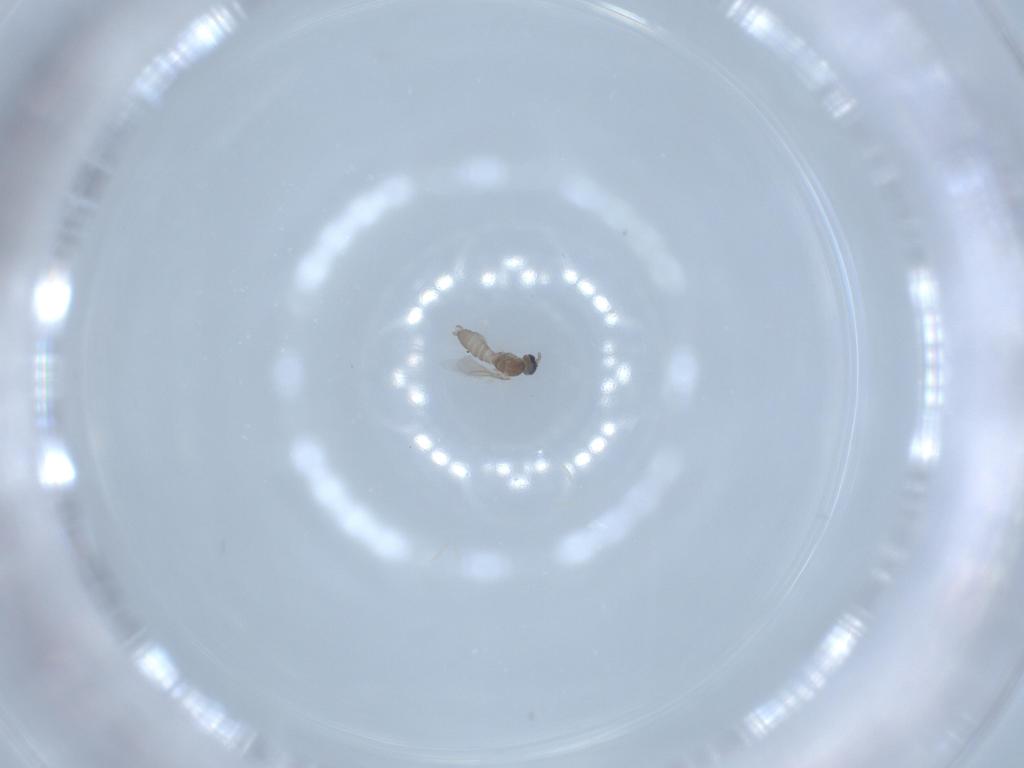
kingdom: Animalia
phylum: Arthropoda
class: Insecta
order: Diptera
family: Cecidomyiidae
